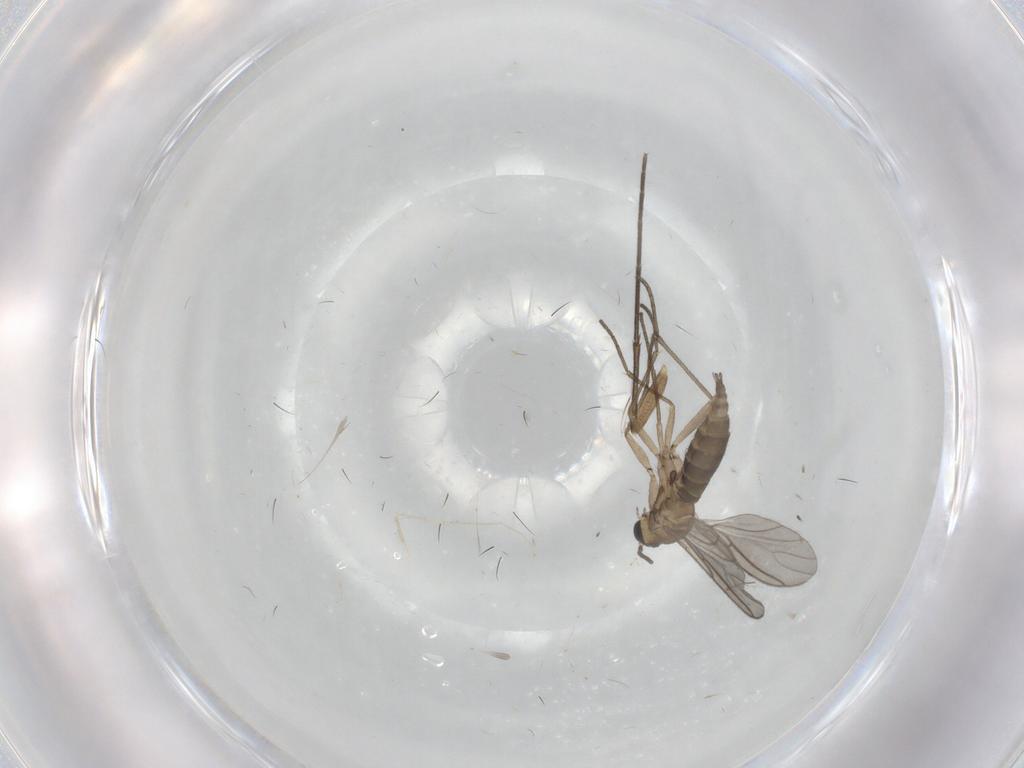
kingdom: Animalia
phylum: Arthropoda
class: Insecta
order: Diptera
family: Sciaridae
